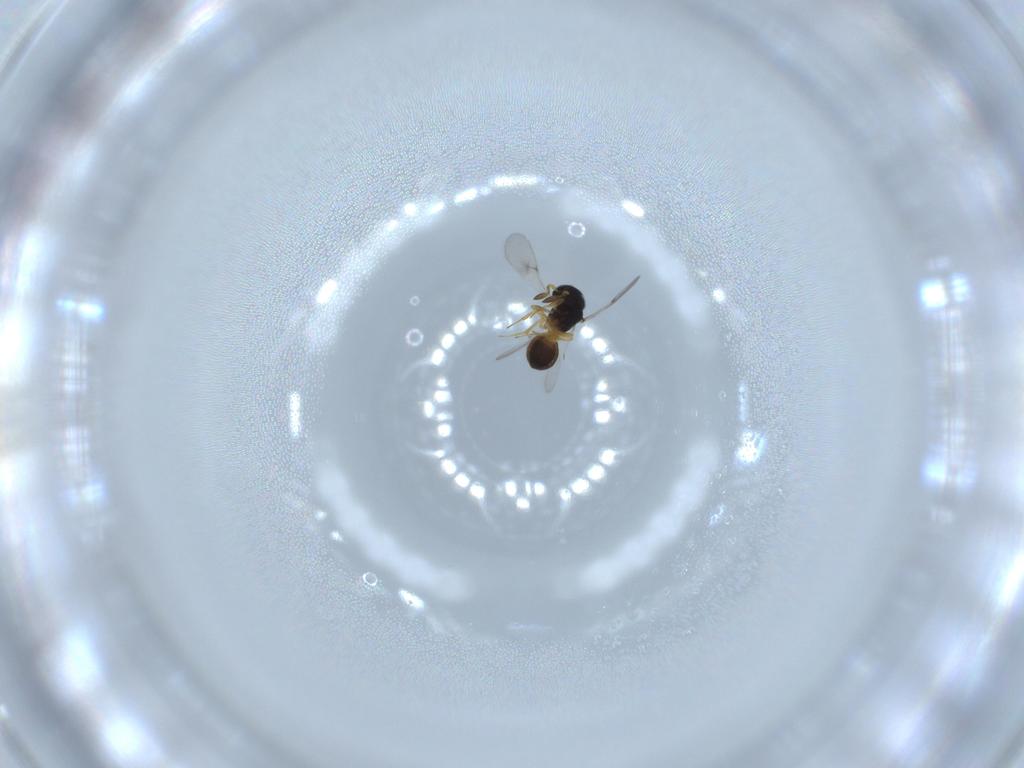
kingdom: Animalia
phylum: Arthropoda
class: Insecta
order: Hymenoptera
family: Scelionidae
